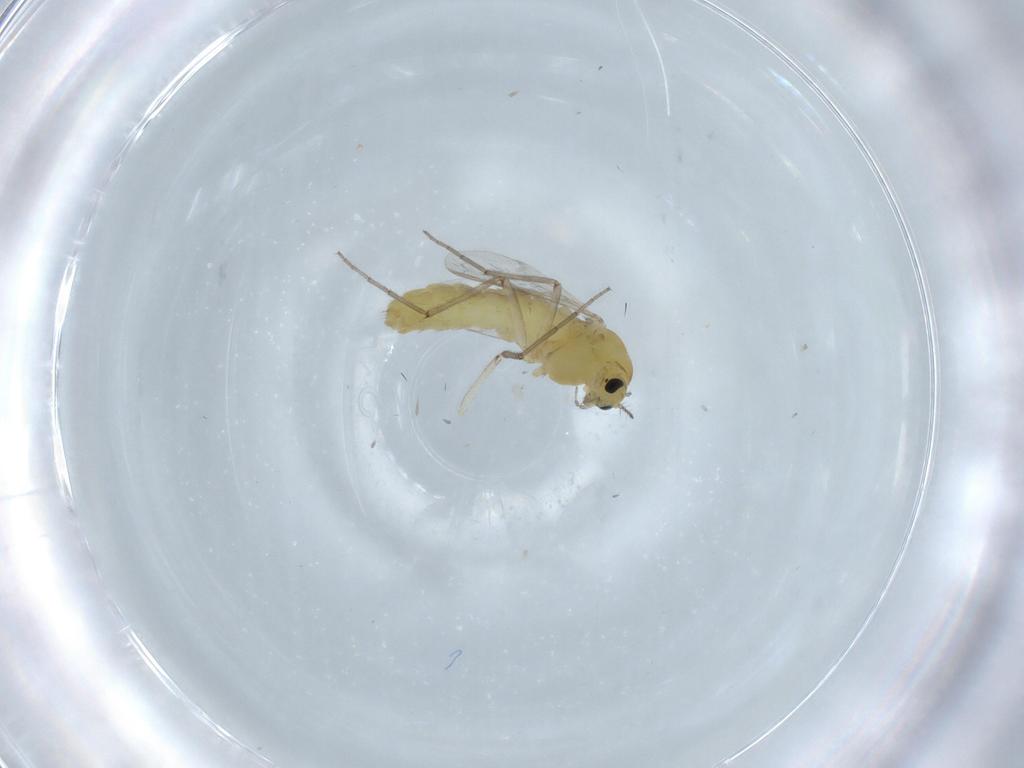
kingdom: Animalia
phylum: Arthropoda
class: Insecta
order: Diptera
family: Chironomidae
